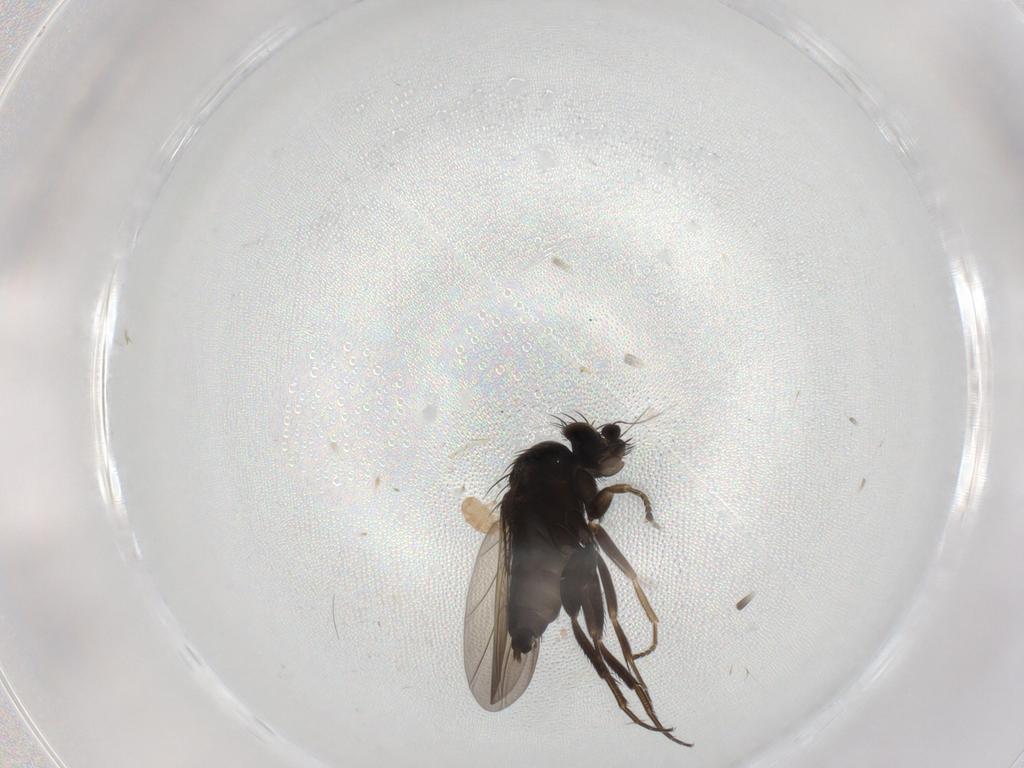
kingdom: Animalia
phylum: Arthropoda
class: Insecta
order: Diptera
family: Phoridae
